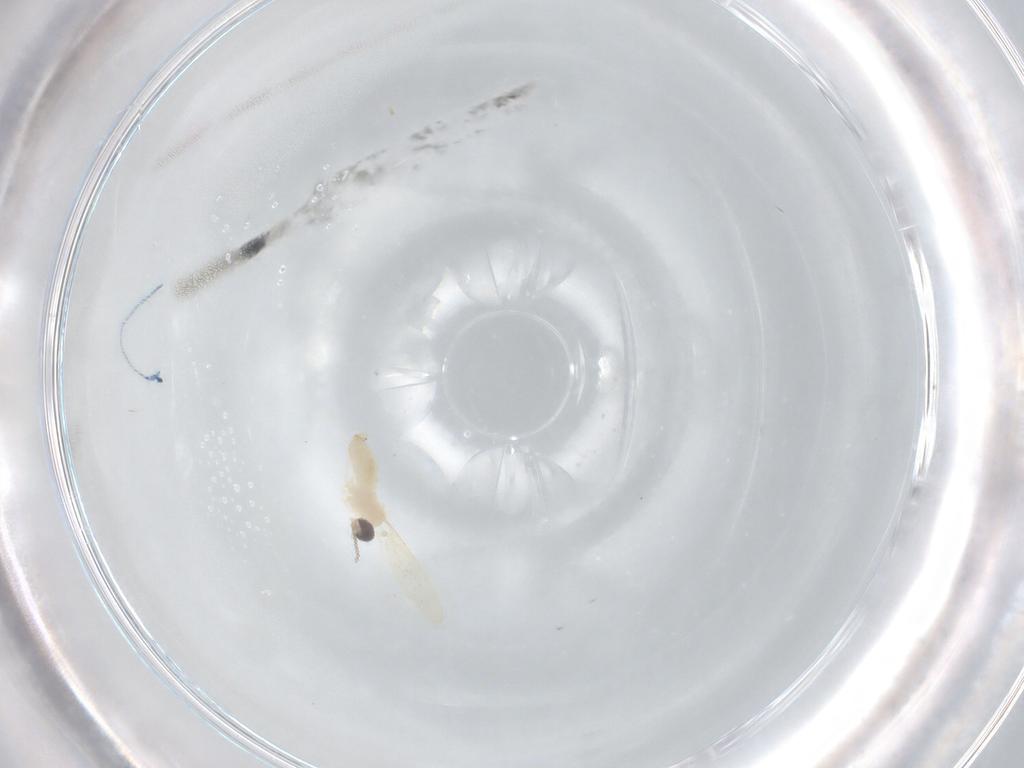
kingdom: Animalia
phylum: Arthropoda
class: Insecta
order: Diptera
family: Cecidomyiidae
